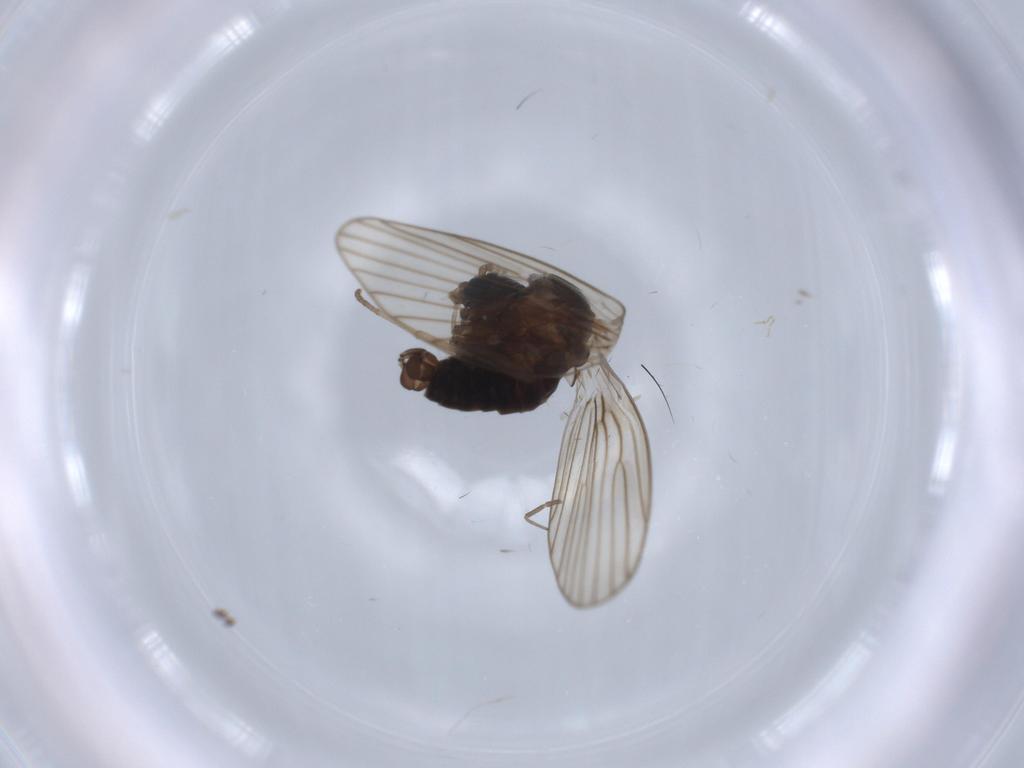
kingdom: Animalia
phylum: Arthropoda
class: Insecta
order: Diptera
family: Psychodidae
